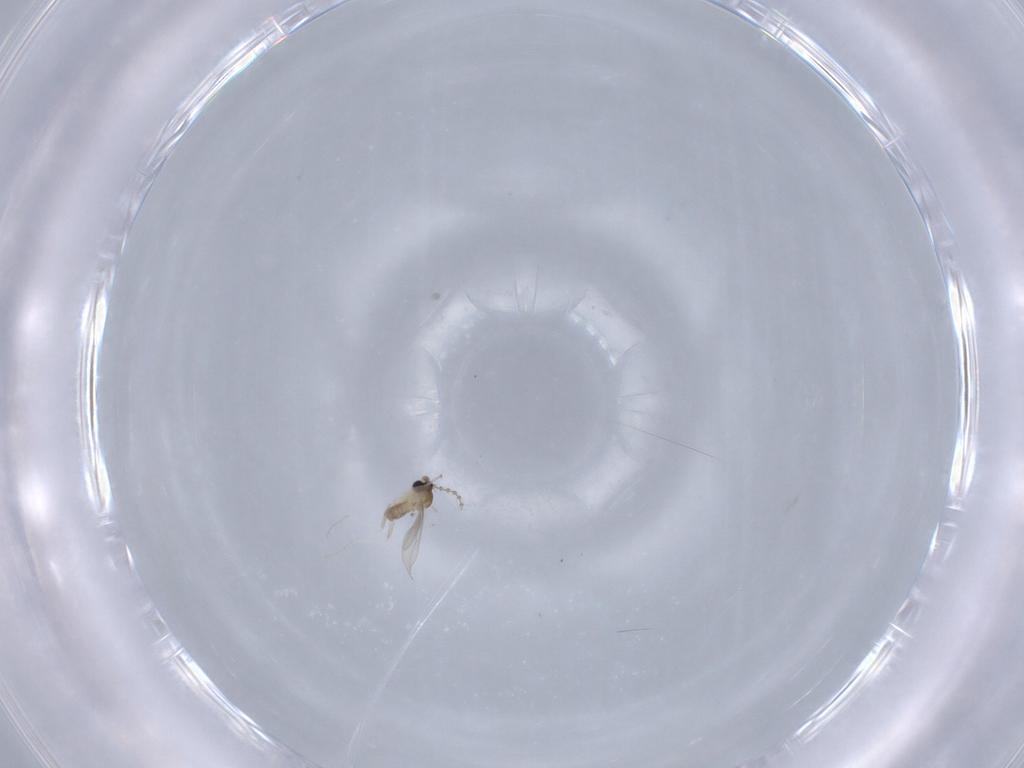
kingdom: Animalia
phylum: Arthropoda
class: Insecta
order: Diptera
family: Cecidomyiidae
